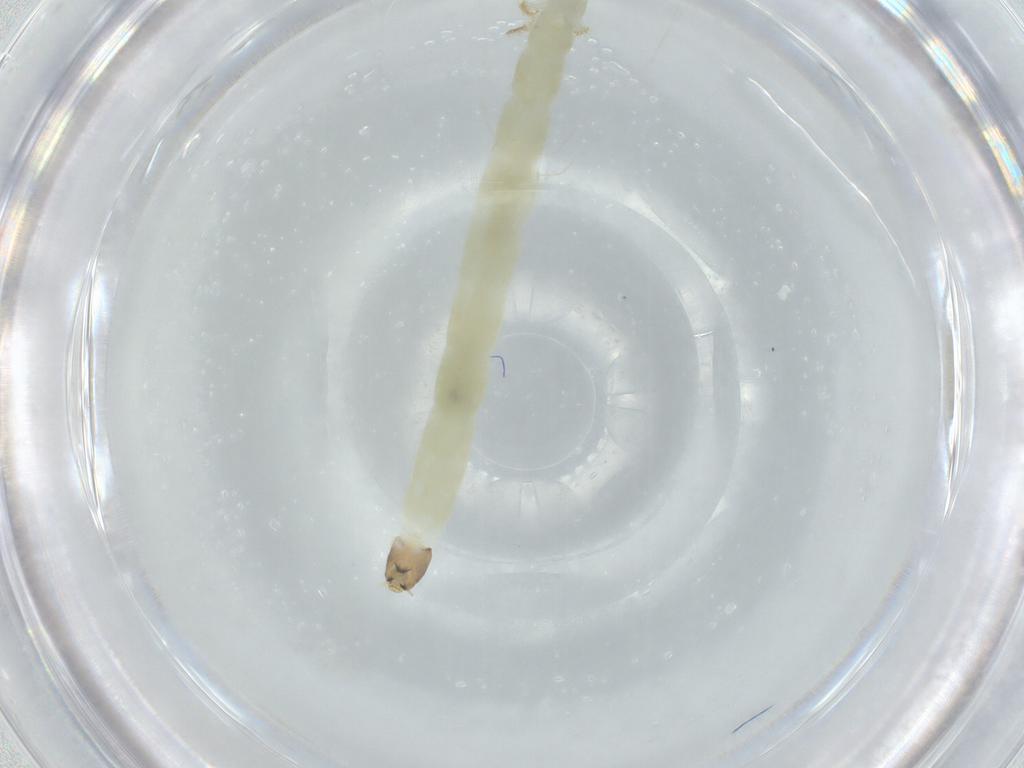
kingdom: Animalia
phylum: Arthropoda
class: Insecta
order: Diptera
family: Chironomidae
